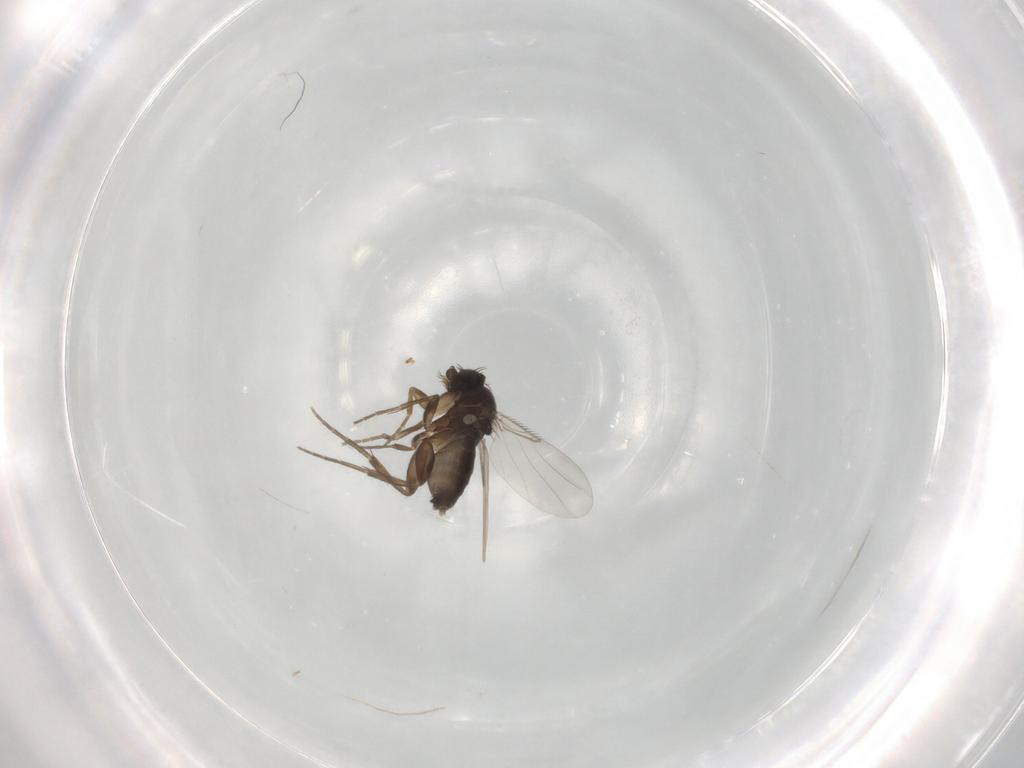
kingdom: Animalia
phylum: Arthropoda
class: Insecta
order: Diptera
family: Phoridae
